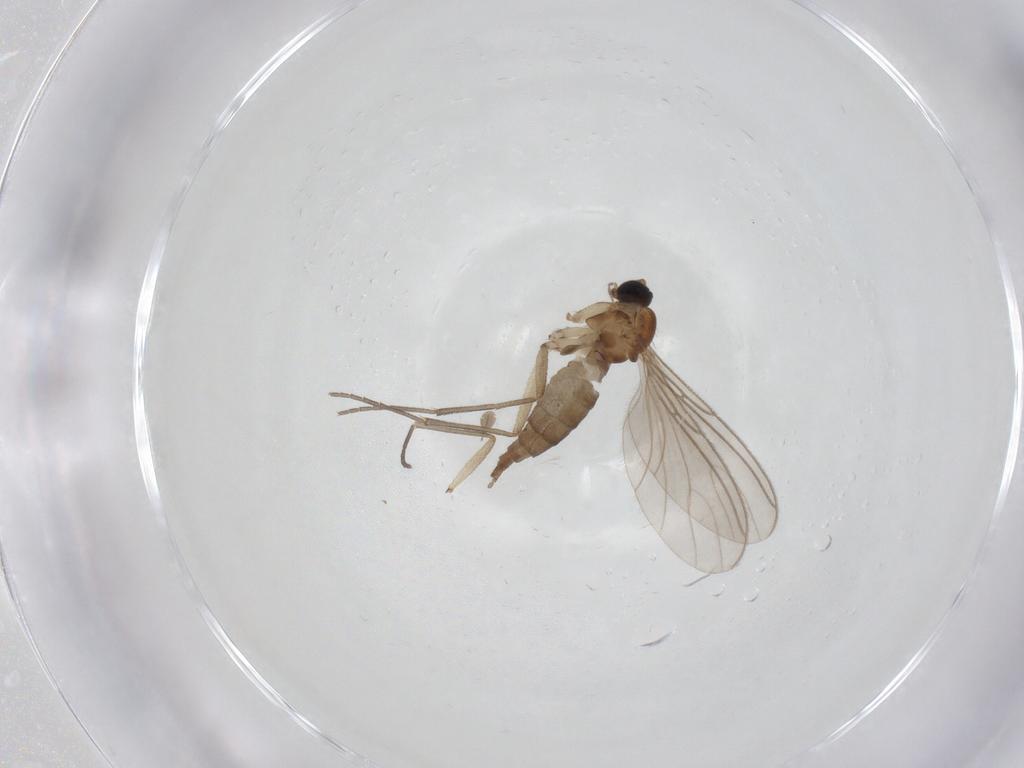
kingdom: Animalia
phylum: Arthropoda
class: Insecta
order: Diptera
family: Sciaridae
